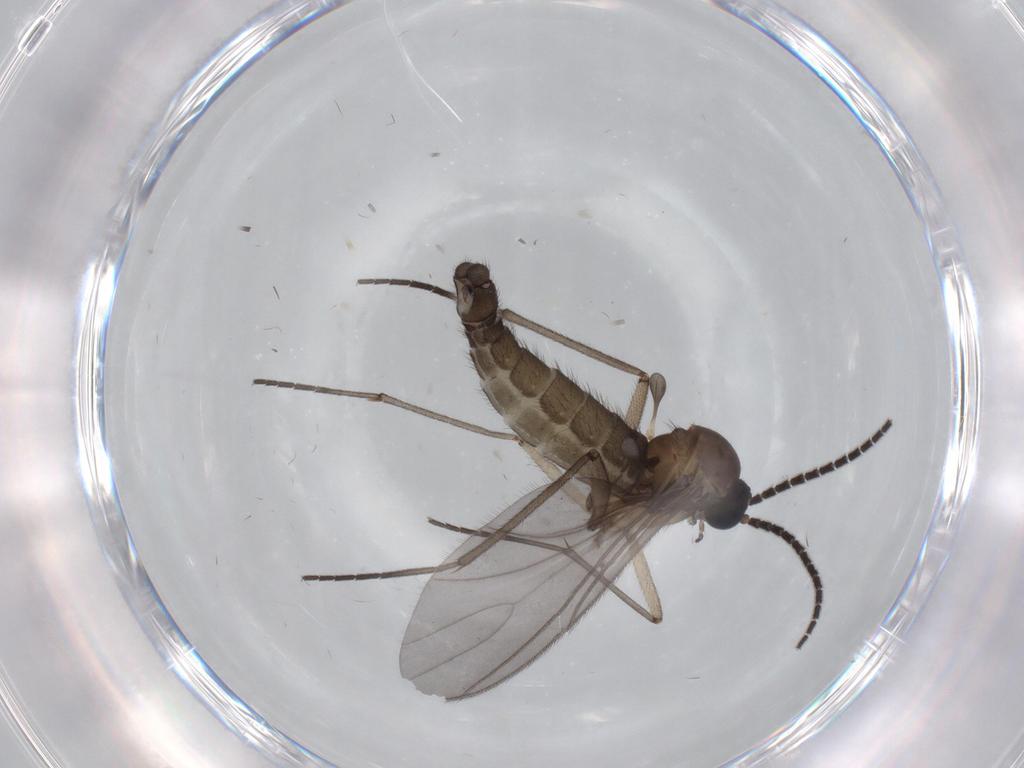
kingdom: Animalia
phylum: Arthropoda
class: Insecta
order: Diptera
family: Sciaridae
